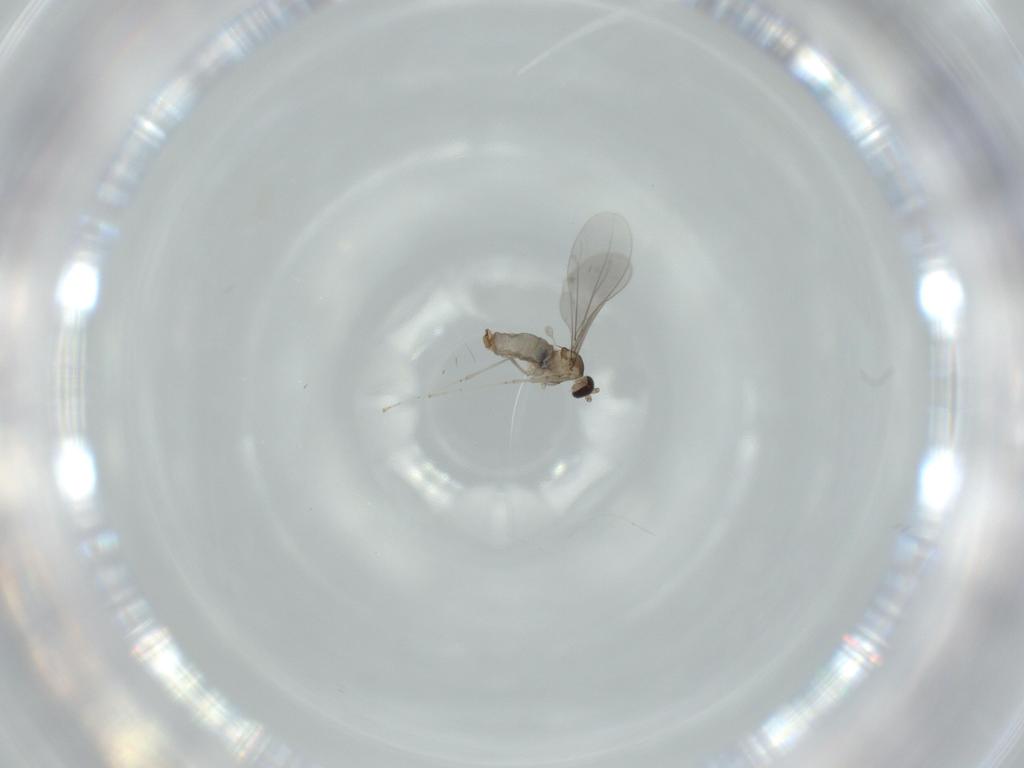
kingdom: Animalia
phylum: Arthropoda
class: Insecta
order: Diptera
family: Cecidomyiidae
